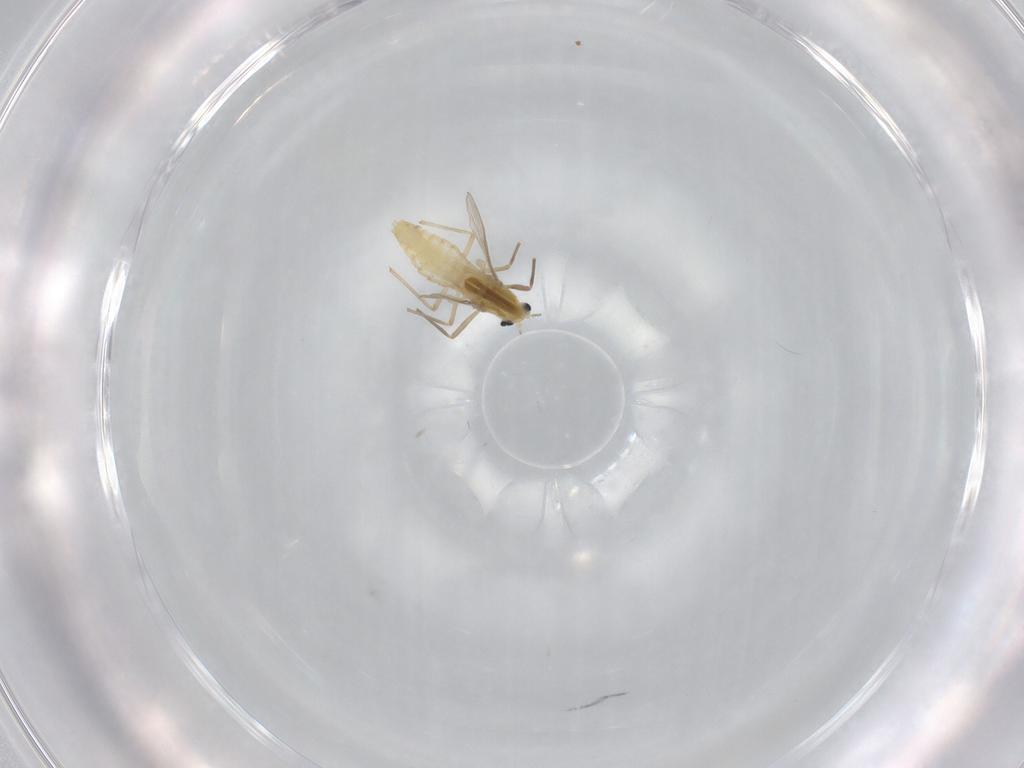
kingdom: Animalia
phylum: Arthropoda
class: Insecta
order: Diptera
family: Chironomidae
